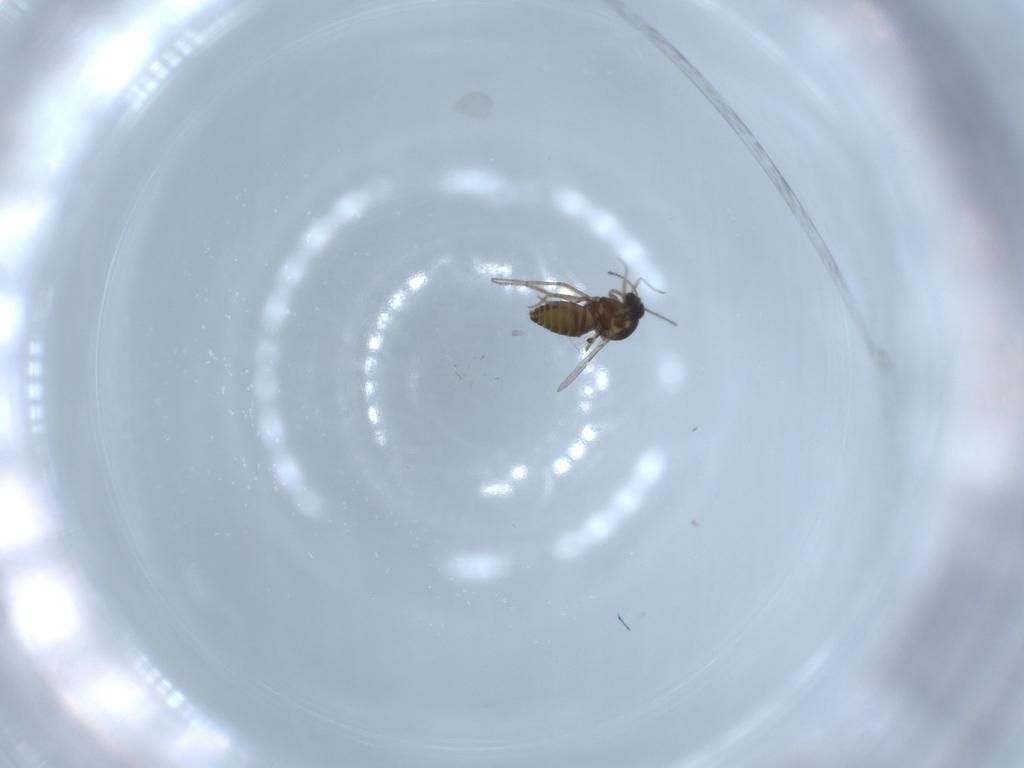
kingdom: Animalia
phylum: Arthropoda
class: Insecta
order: Diptera
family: Ceratopogonidae
